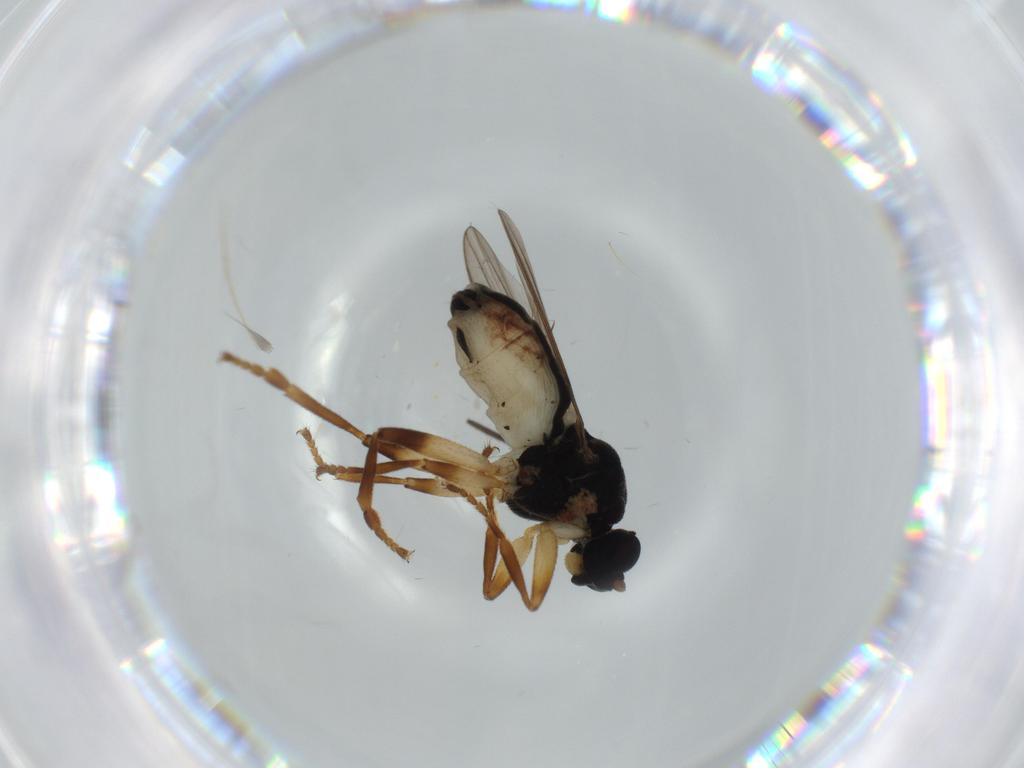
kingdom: Animalia
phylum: Arthropoda
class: Insecta
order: Diptera
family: Sphaeroceridae
